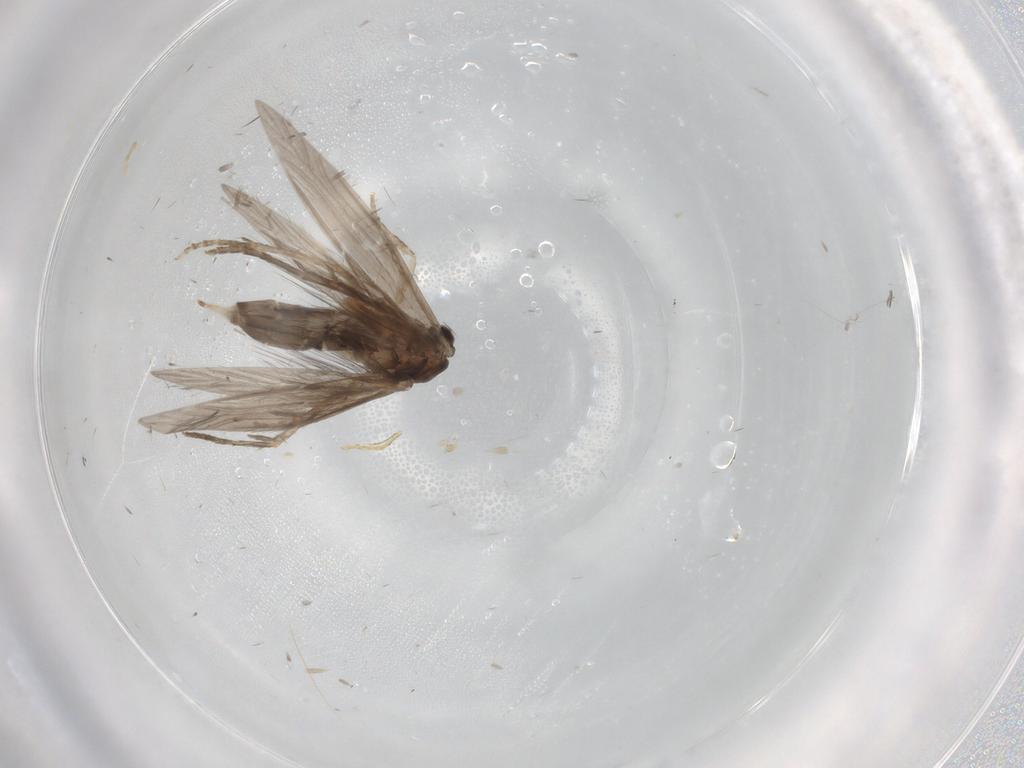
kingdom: Animalia
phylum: Arthropoda
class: Insecta
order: Trichoptera
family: Hydroptilidae
